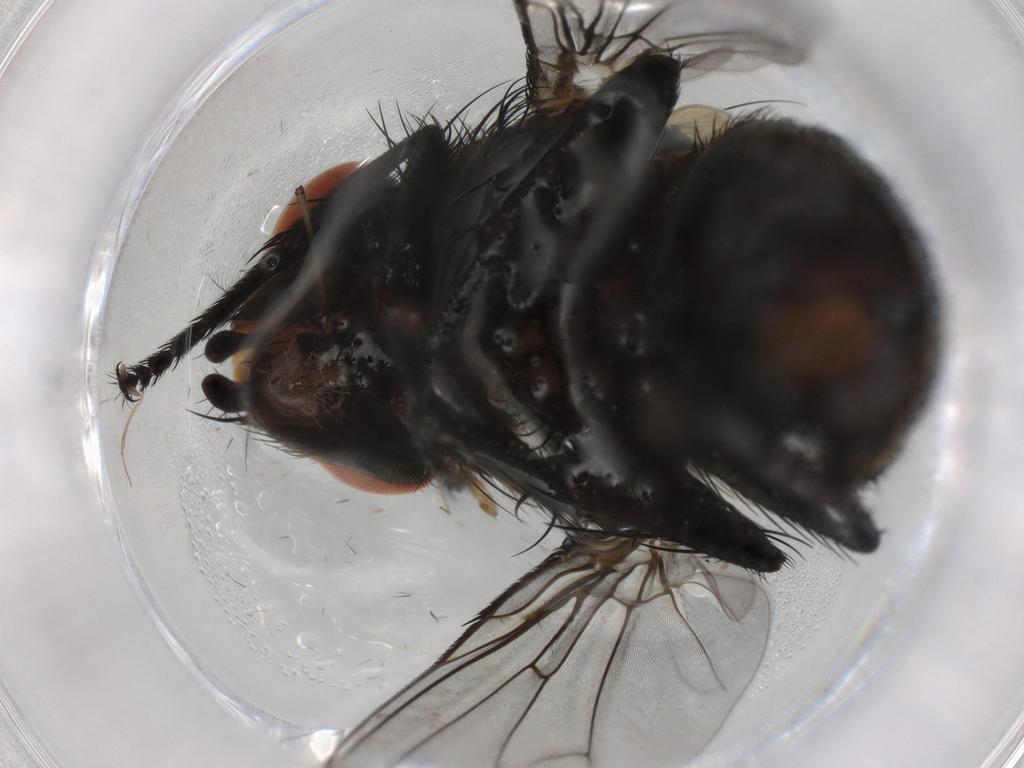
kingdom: Animalia
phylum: Arthropoda
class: Insecta
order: Diptera
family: Sarcophagidae
